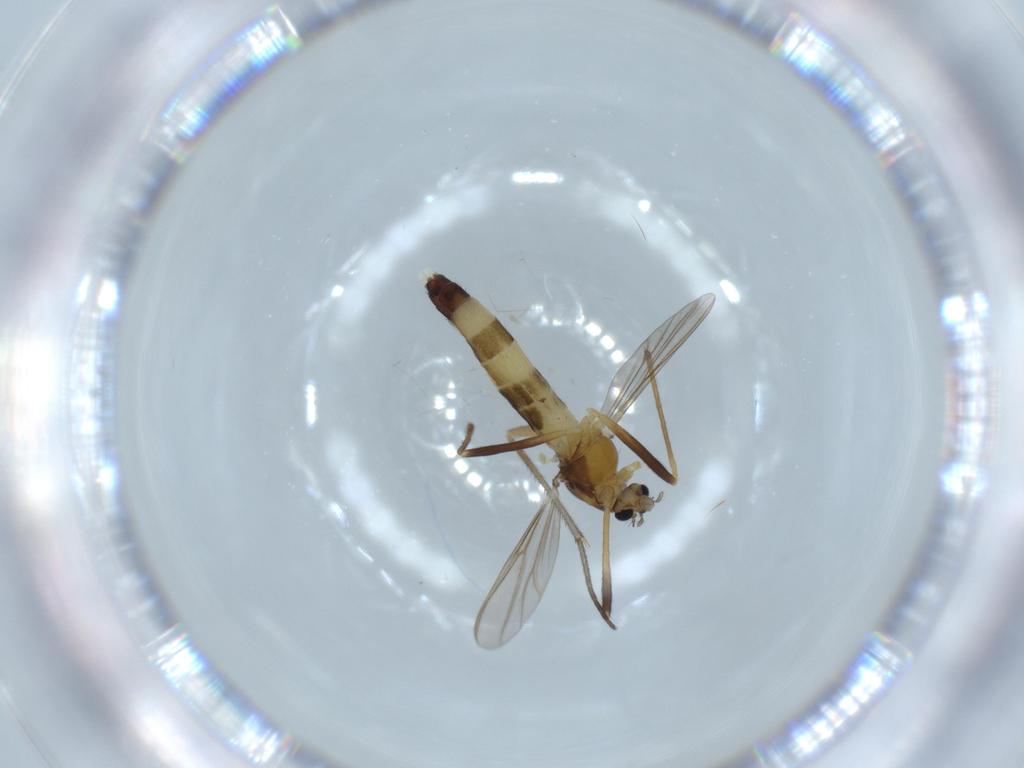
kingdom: Animalia
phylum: Arthropoda
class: Insecta
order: Diptera
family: Chironomidae
